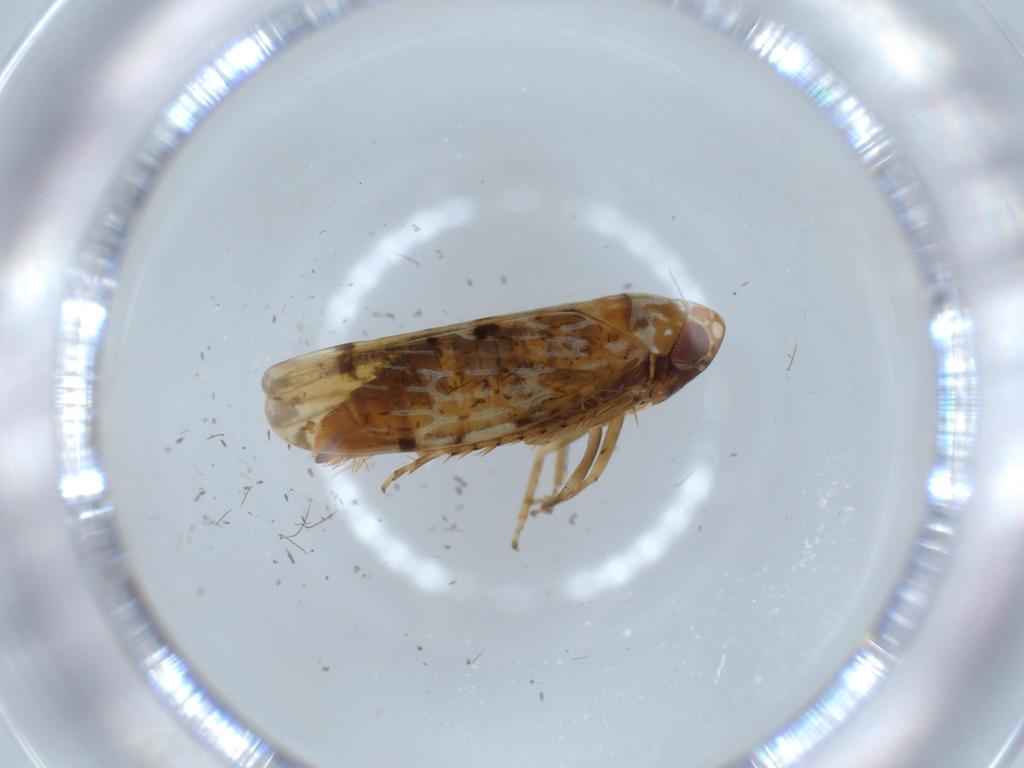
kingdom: Animalia
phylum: Arthropoda
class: Insecta
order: Hemiptera
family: Cicadellidae
